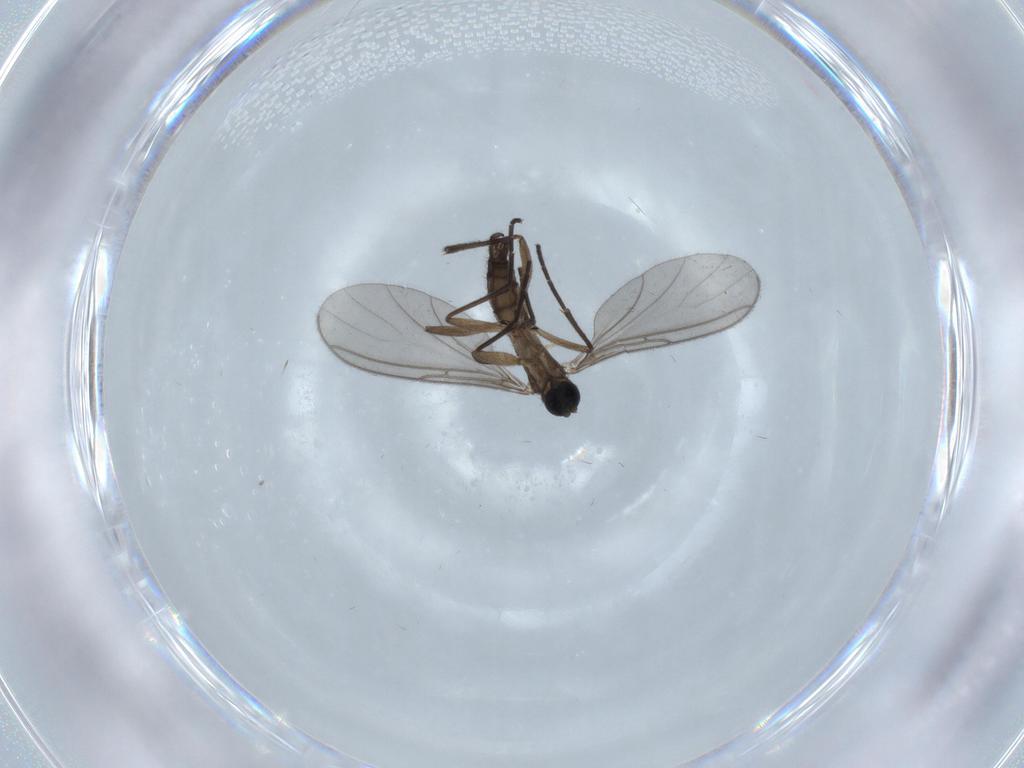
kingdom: Animalia
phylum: Arthropoda
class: Insecta
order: Diptera
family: Sciaridae
